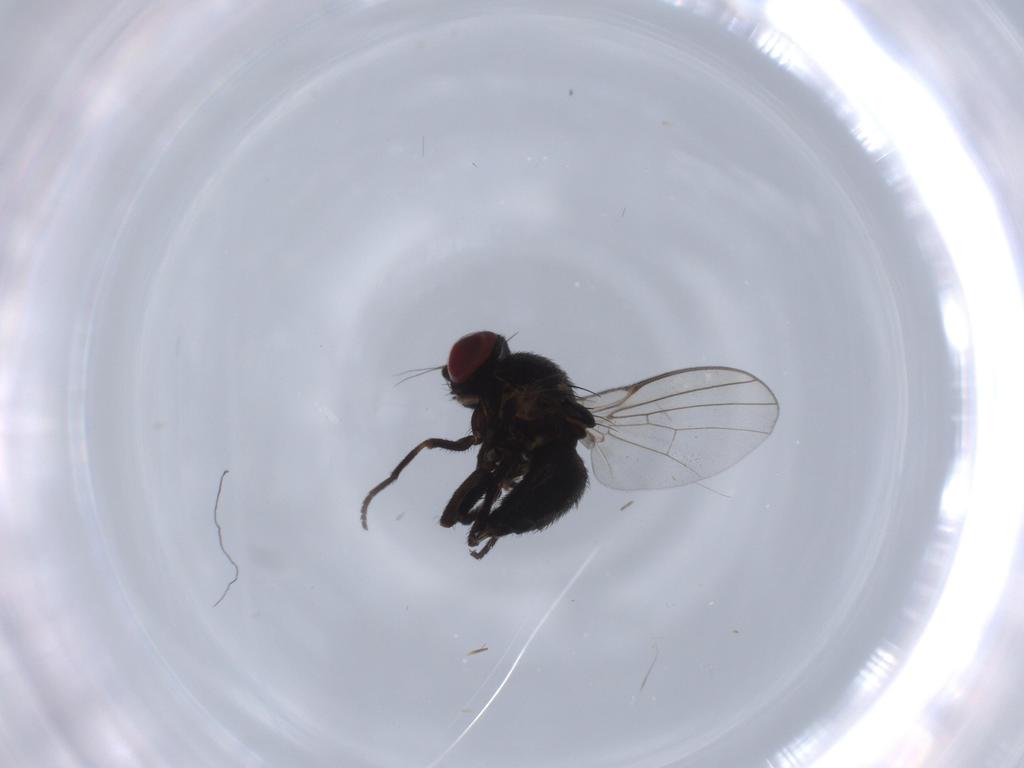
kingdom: Animalia
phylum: Arthropoda
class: Insecta
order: Diptera
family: Agromyzidae
